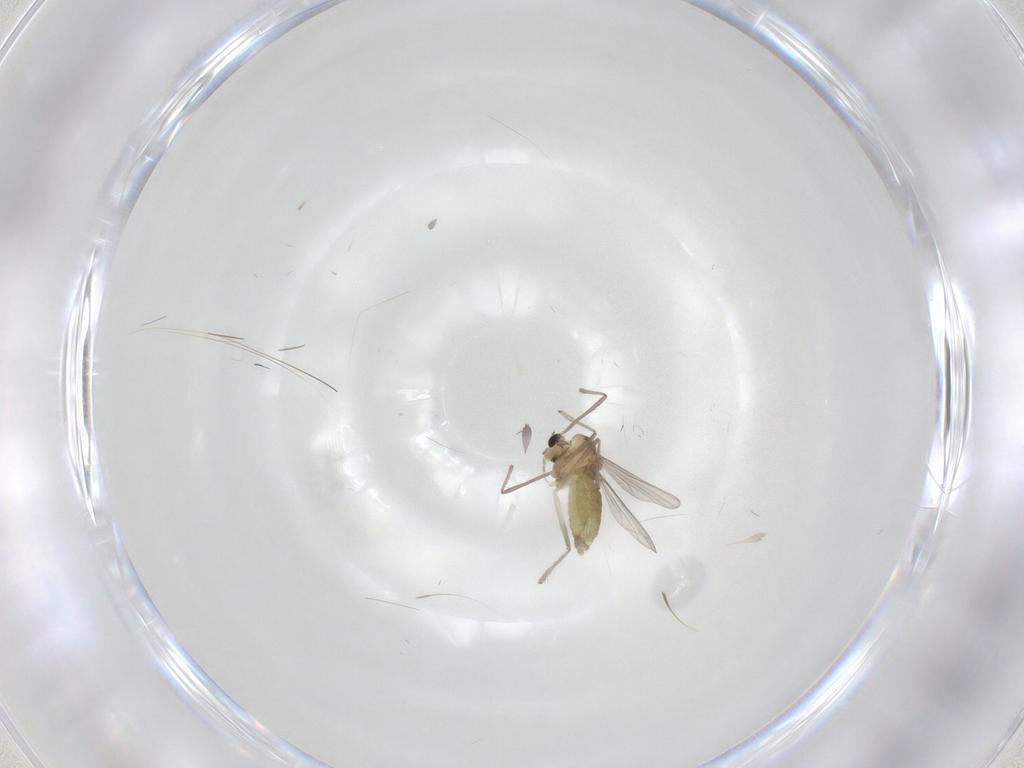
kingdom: Animalia
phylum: Arthropoda
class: Insecta
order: Diptera
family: Chironomidae
